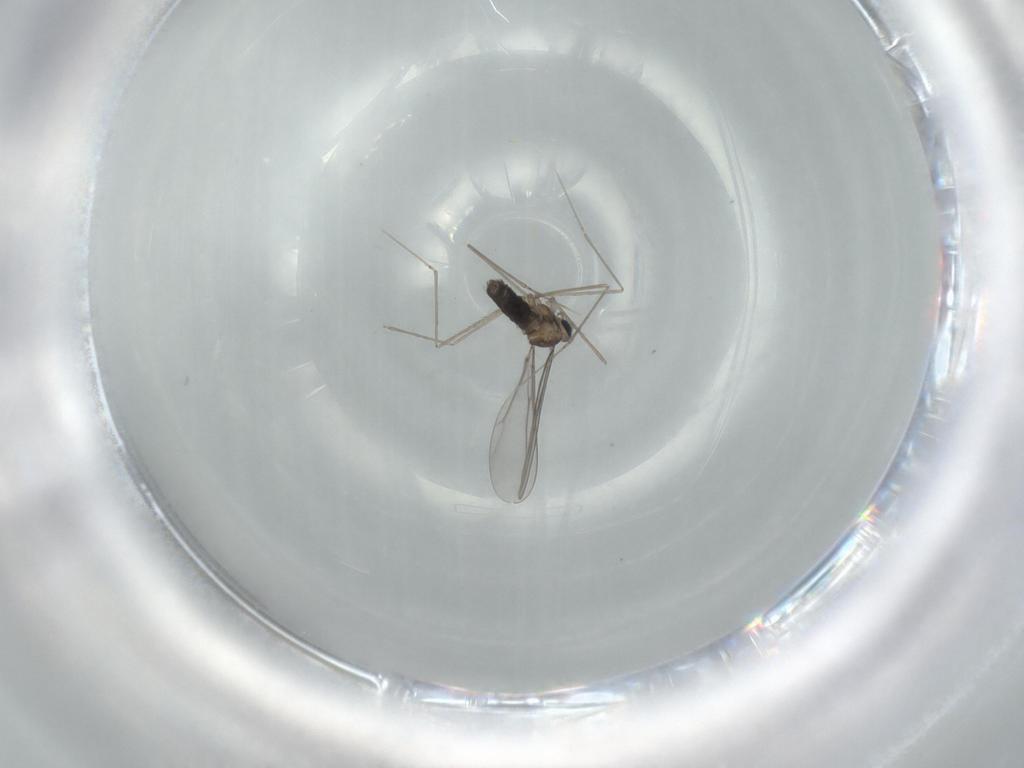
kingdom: Animalia
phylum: Arthropoda
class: Insecta
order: Diptera
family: Cecidomyiidae
